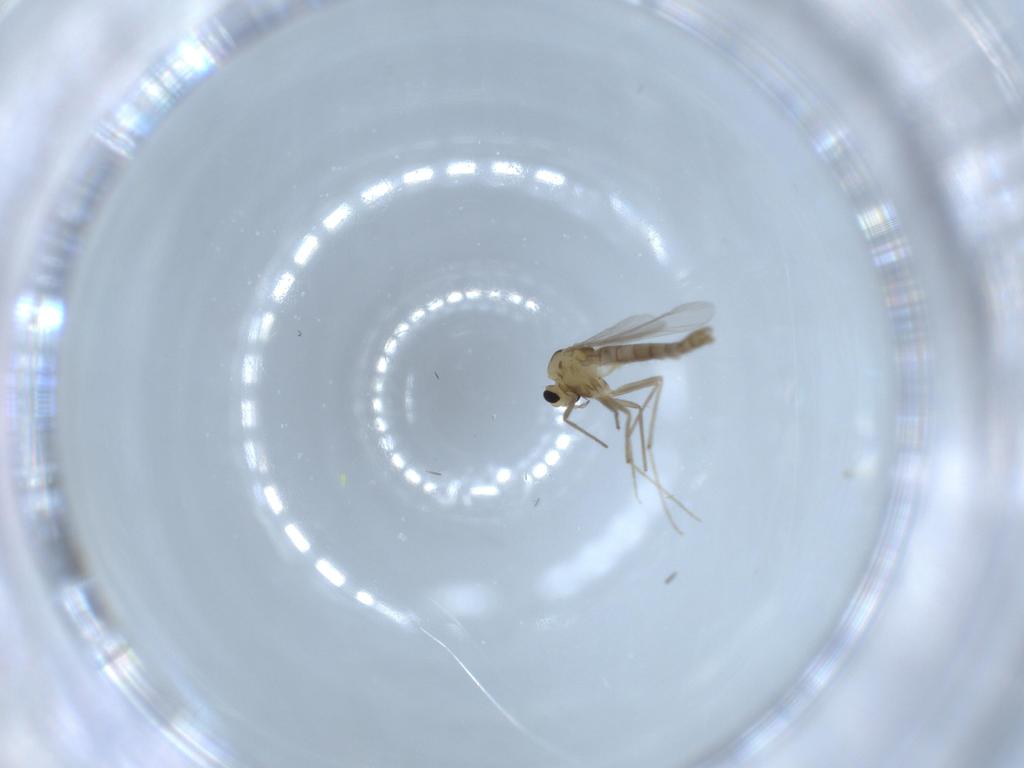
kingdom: Animalia
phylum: Arthropoda
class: Insecta
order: Diptera
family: Chironomidae
